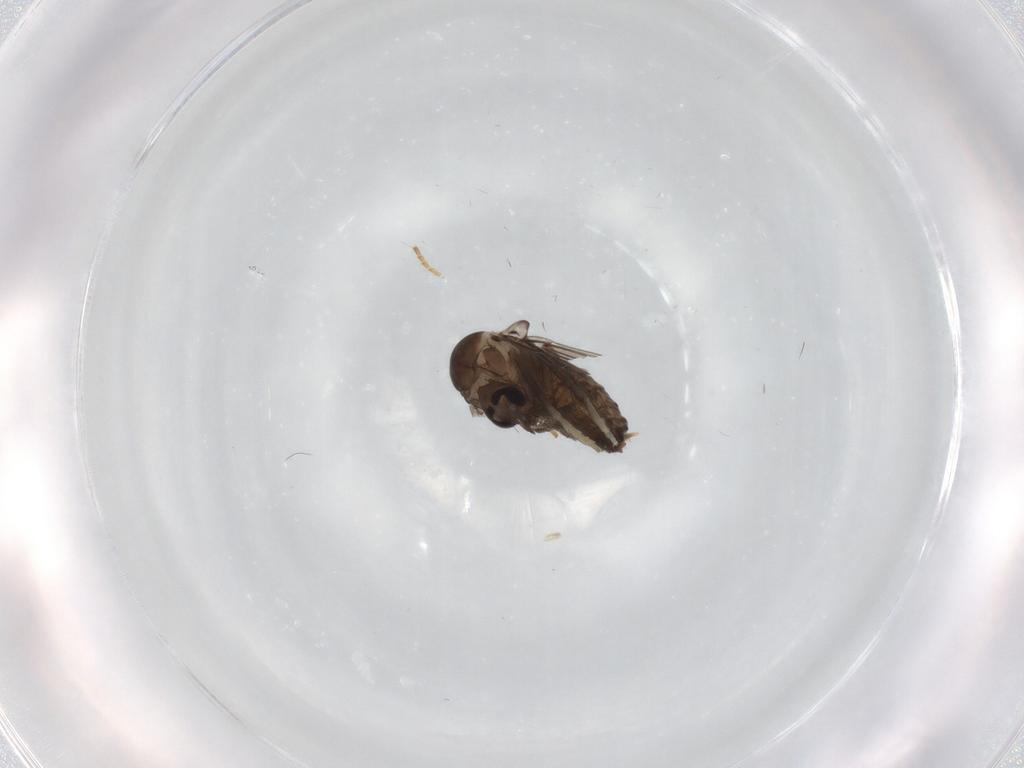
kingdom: Animalia
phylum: Arthropoda
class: Insecta
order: Diptera
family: Psychodidae
